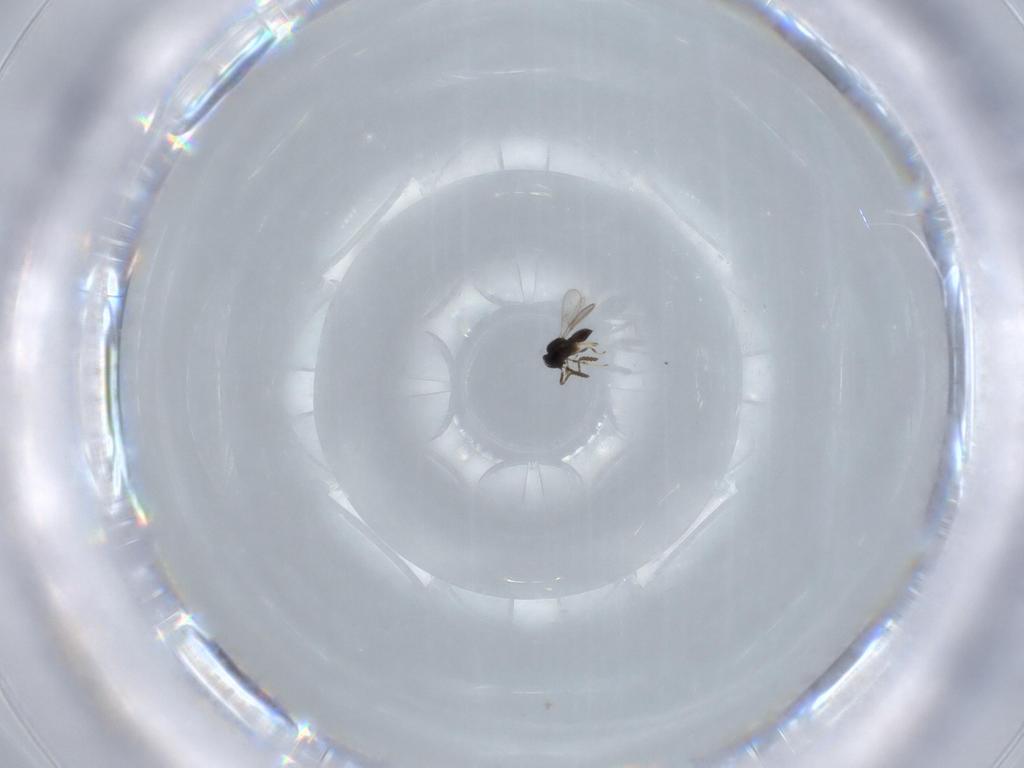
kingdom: Animalia
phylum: Arthropoda
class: Insecta
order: Hymenoptera
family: Scelionidae
